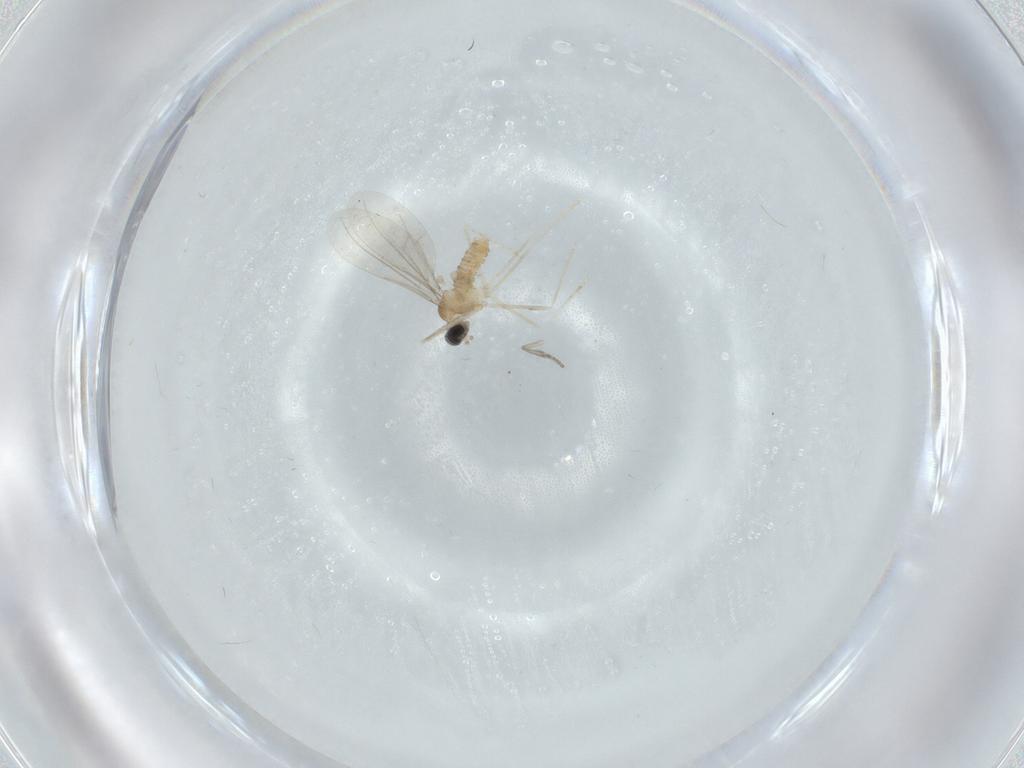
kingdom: Animalia
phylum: Arthropoda
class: Insecta
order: Diptera
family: Cecidomyiidae
